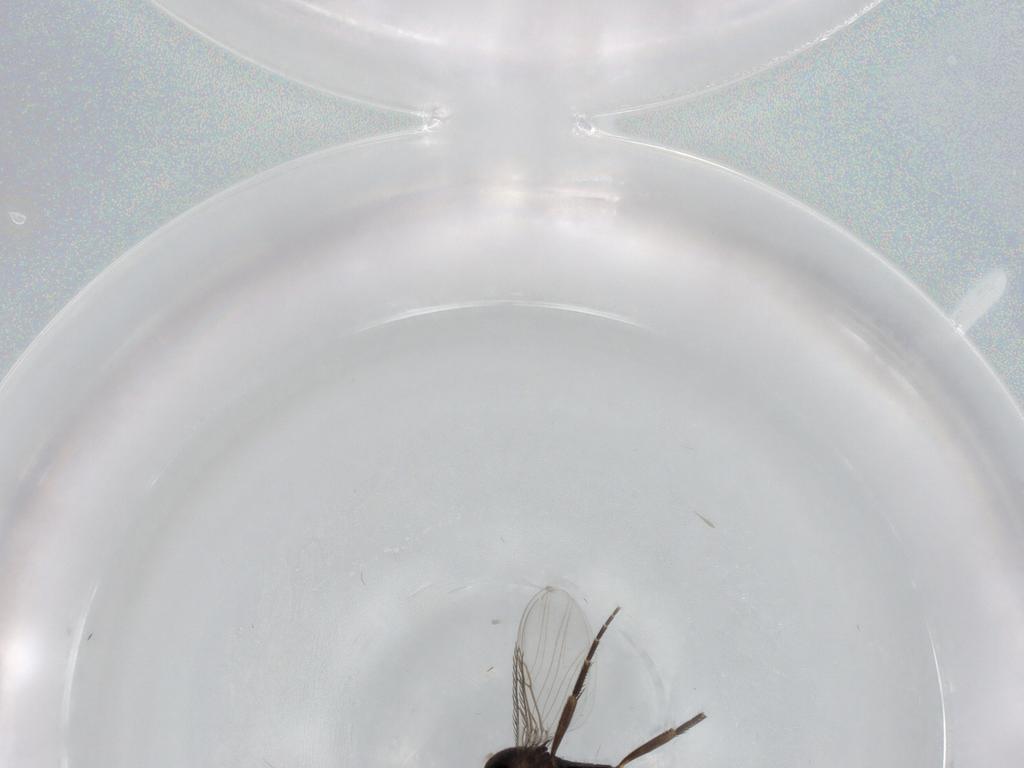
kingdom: Animalia
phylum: Arthropoda
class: Insecta
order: Diptera
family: Phoridae
